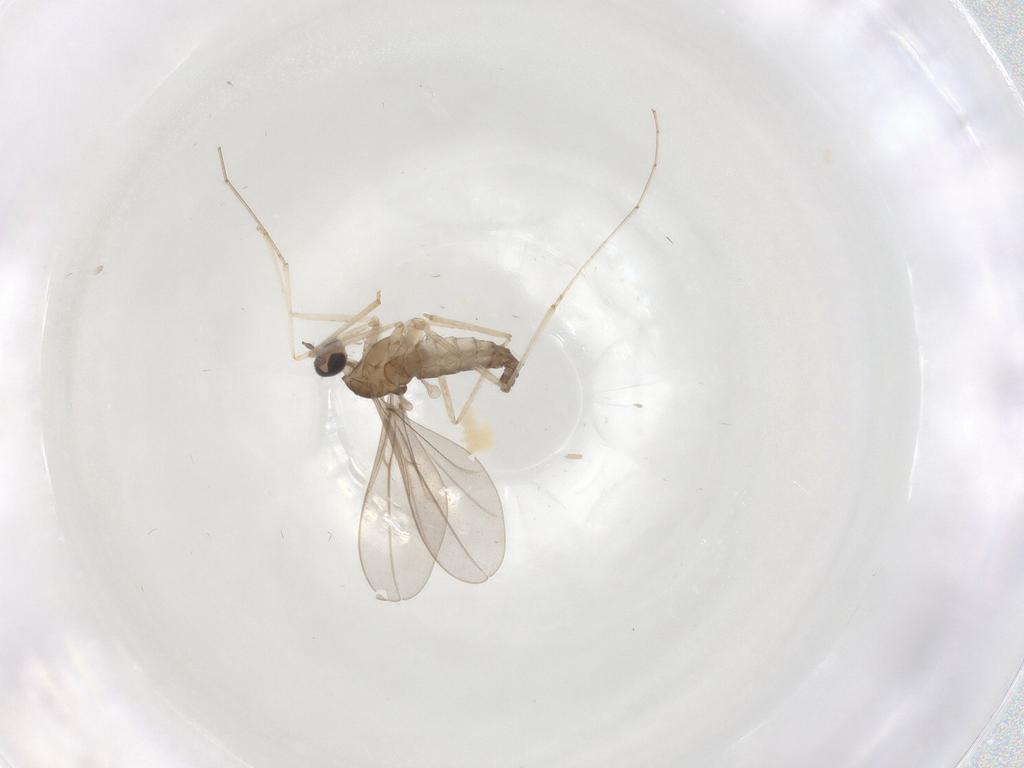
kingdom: Animalia
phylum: Arthropoda
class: Insecta
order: Diptera
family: Chironomidae
